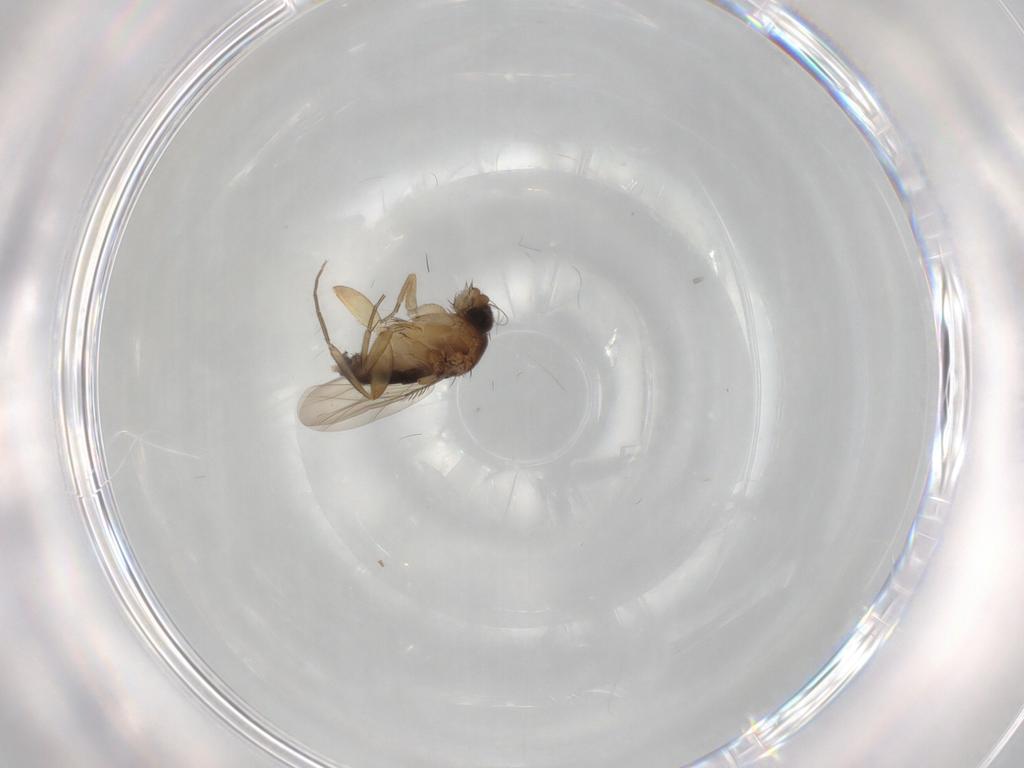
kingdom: Animalia
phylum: Arthropoda
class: Insecta
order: Diptera
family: Phoridae
